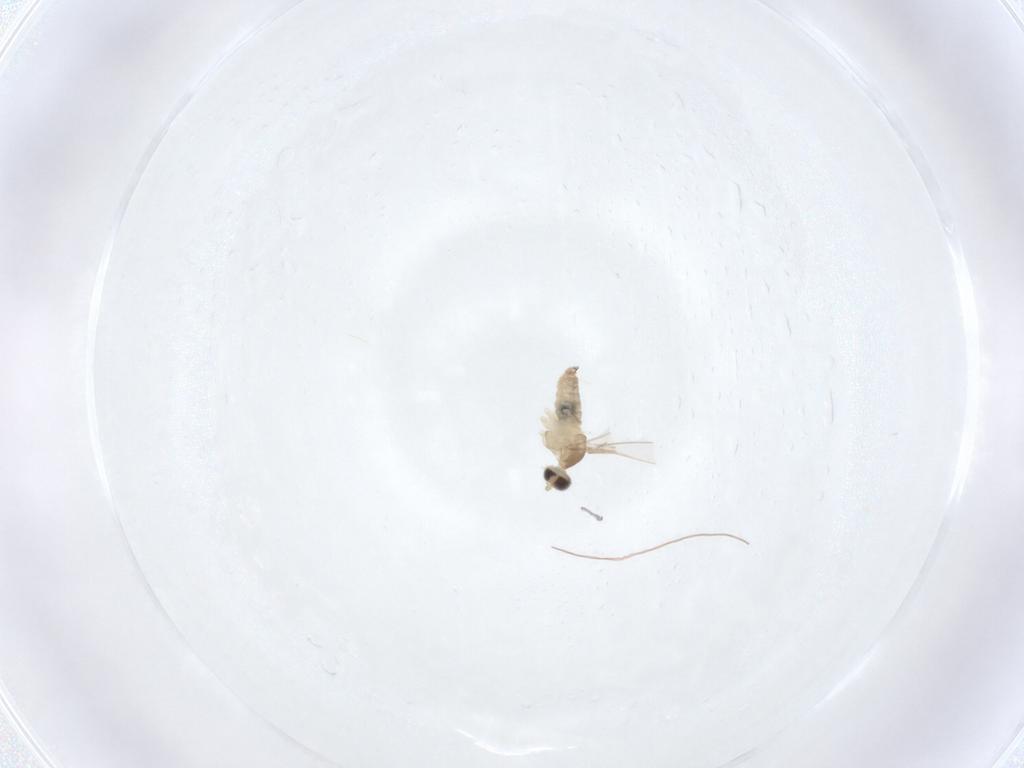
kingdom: Animalia
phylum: Arthropoda
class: Insecta
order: Diptera
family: Cecidomyiidae
